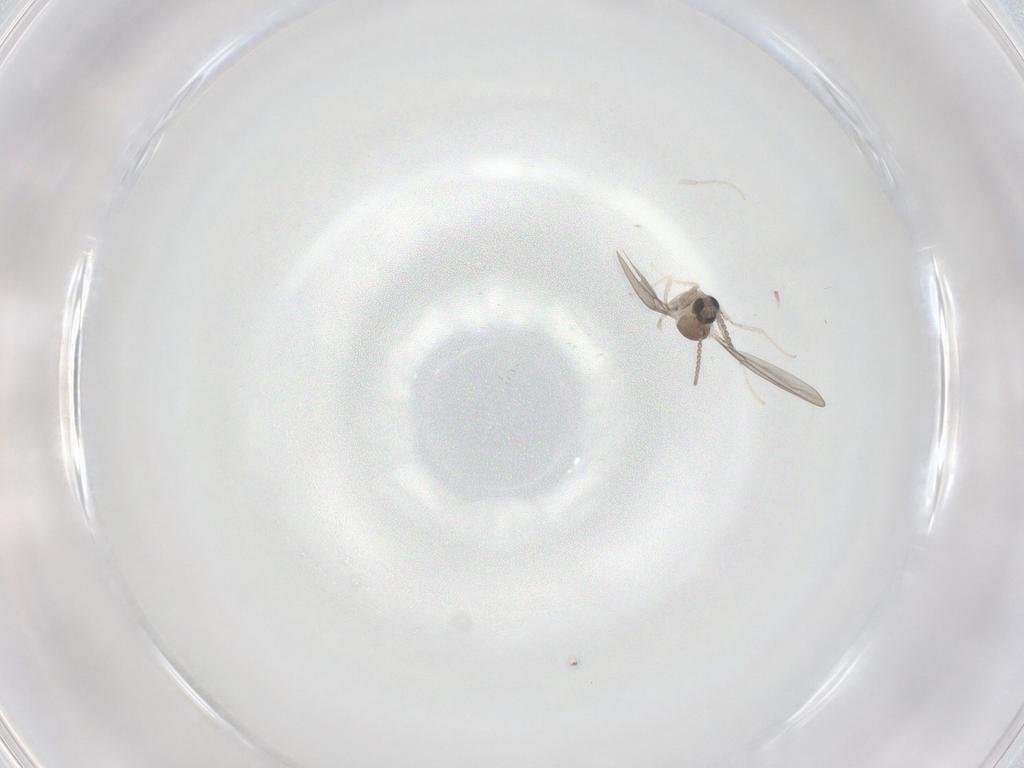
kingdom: Animalia
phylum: Arthropoda
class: Insecta
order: Diptera
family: Cecidomyiidae
